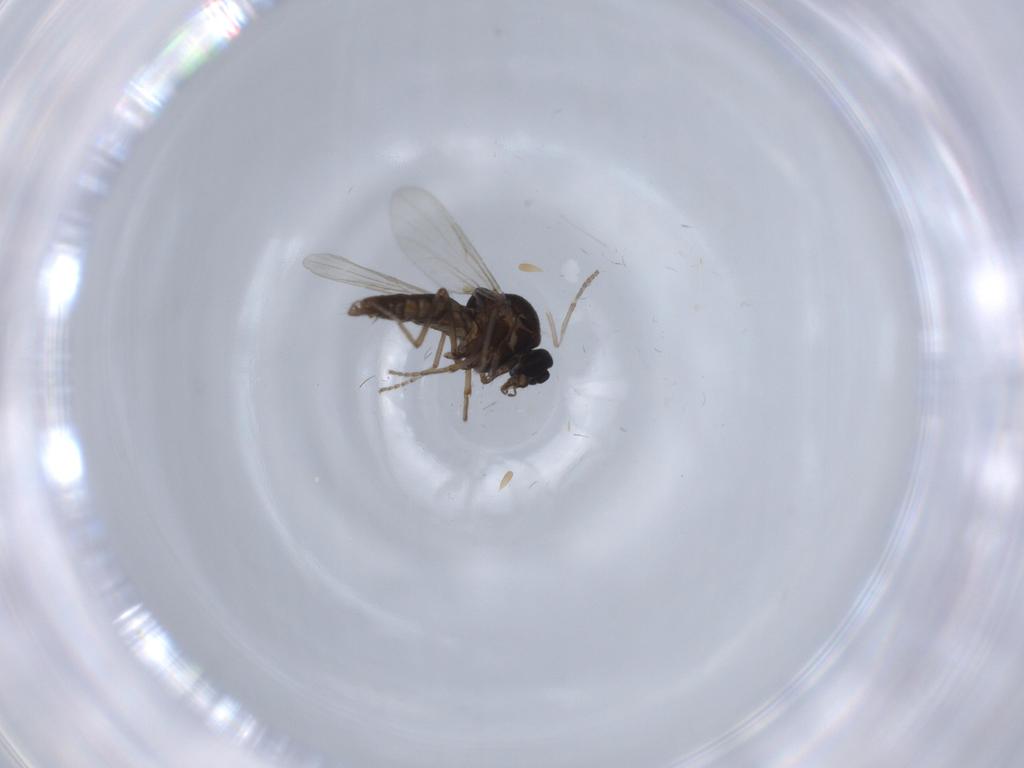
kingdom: Animalia
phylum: Arthropoda
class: Insecta
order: Diptera
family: Ceratopogonidae
